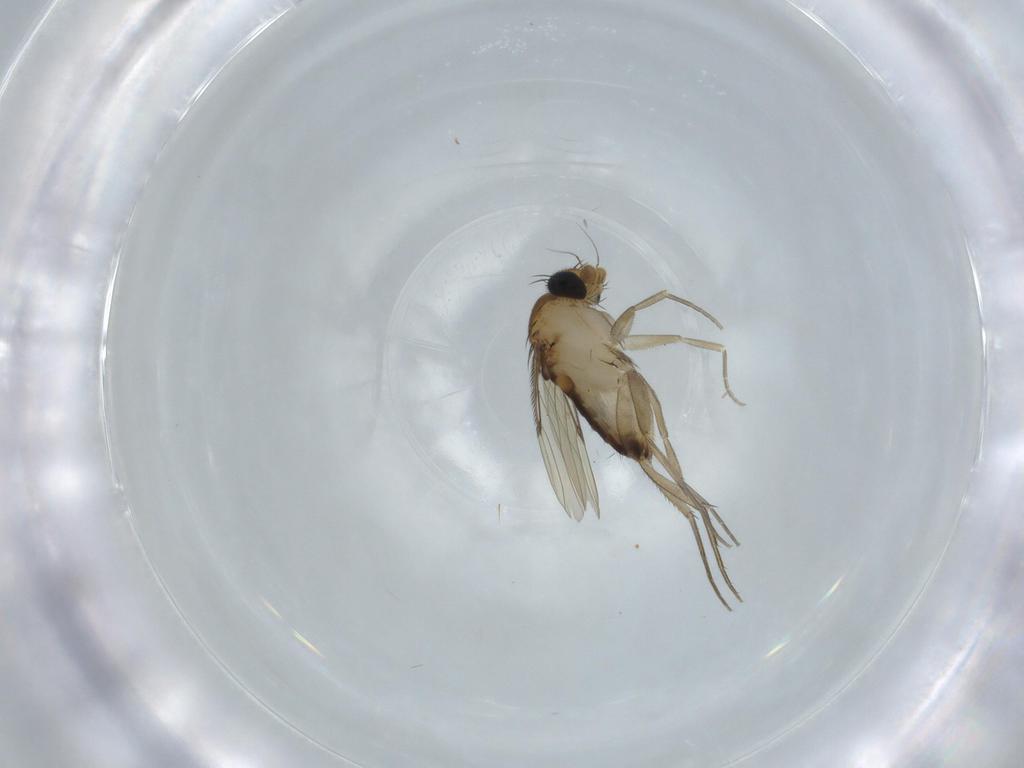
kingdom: Animalia
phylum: Arthropoda
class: Insecta
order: Diptera
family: Phoridae
